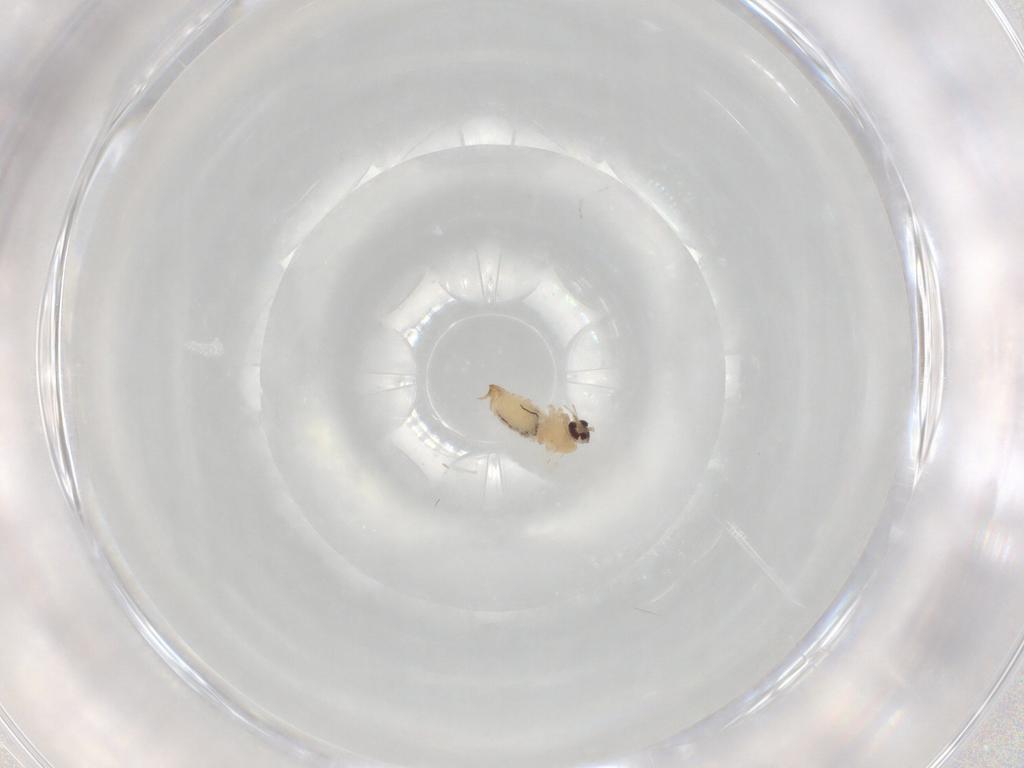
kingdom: Animalia
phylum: Arthropoda
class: Insecta
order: Diptera
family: Psychodidae
